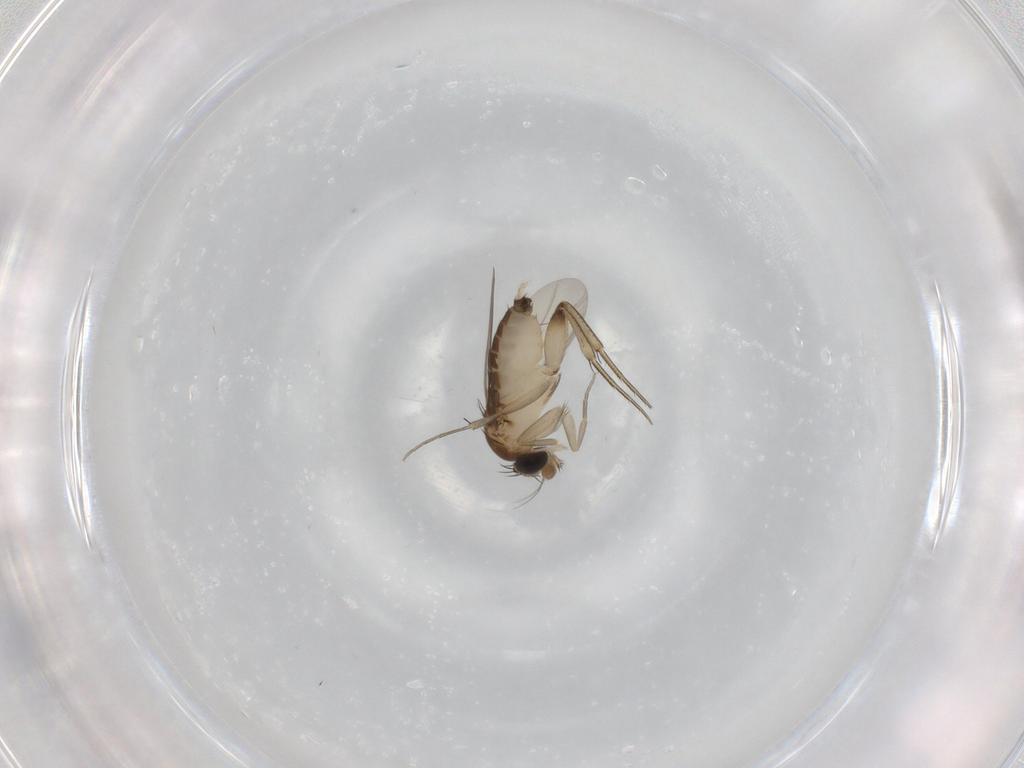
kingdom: Animalia
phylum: Arthropoda
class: Insecta
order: Diptera
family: Phoridae
